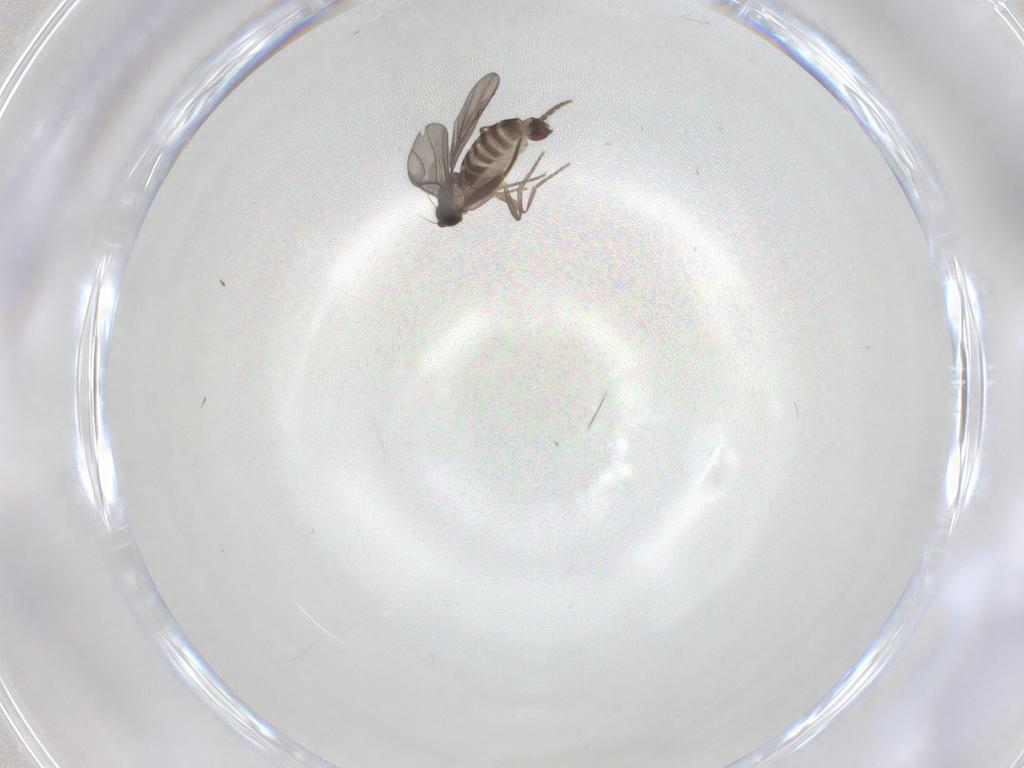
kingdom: Animalia
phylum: Arthropoda
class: Insecta
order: Diptera
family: Phoridae
